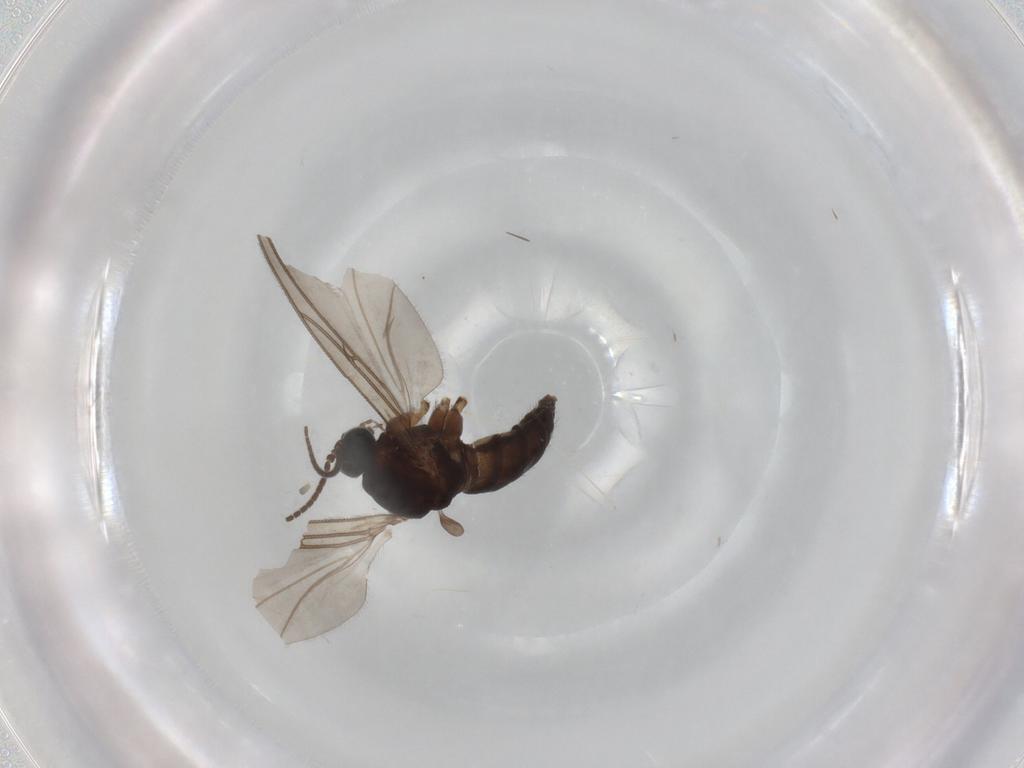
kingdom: Animalia
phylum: Arthropoda
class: Insecta
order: Diptera
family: Sciaridae
